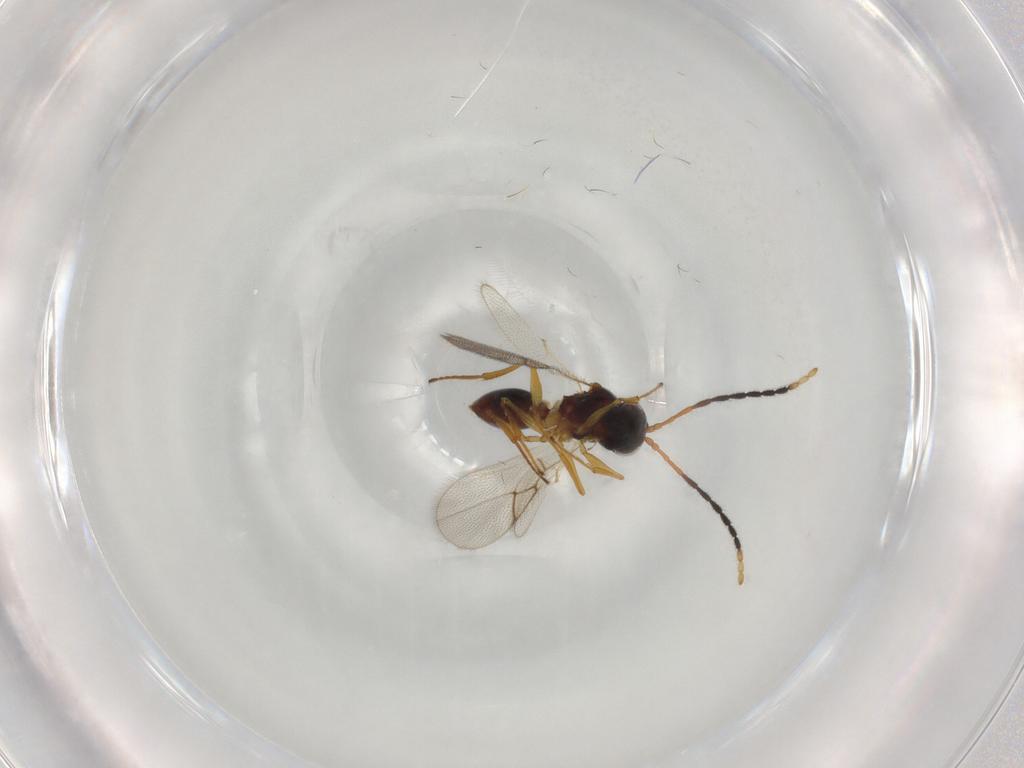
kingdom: Animalia
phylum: Arthropoda
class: Insecta
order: Hymenoptera
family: Figitidae
